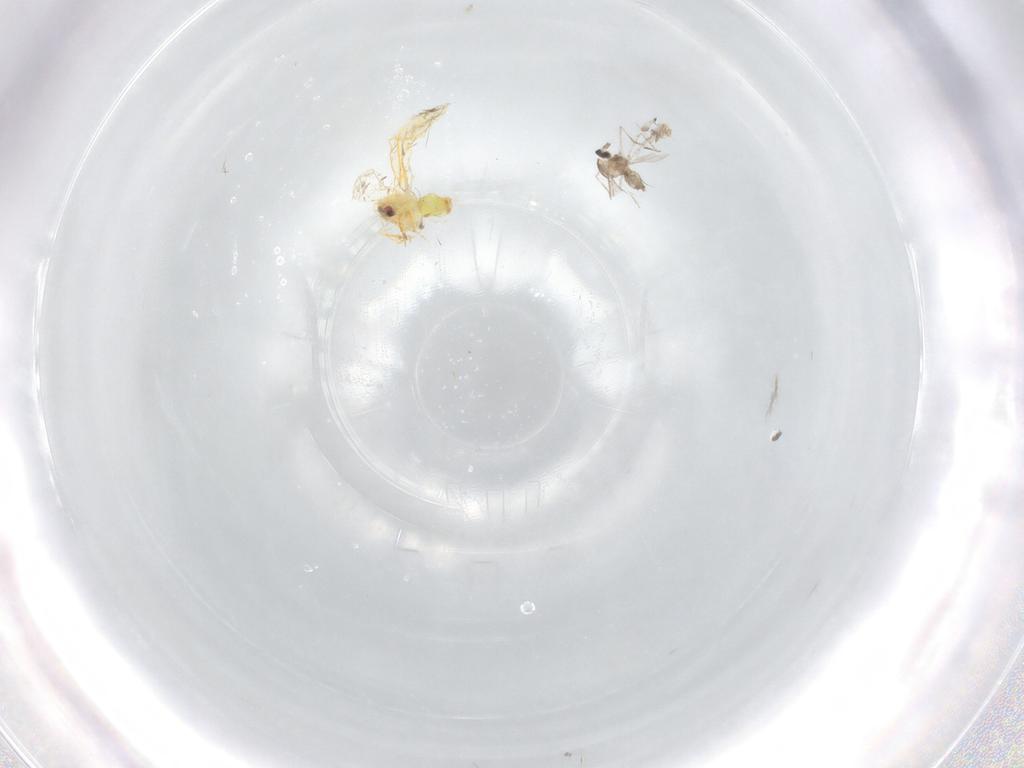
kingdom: Animalia
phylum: Arthropoda
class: Insecta
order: Diptera
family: Cecidomyiidae
